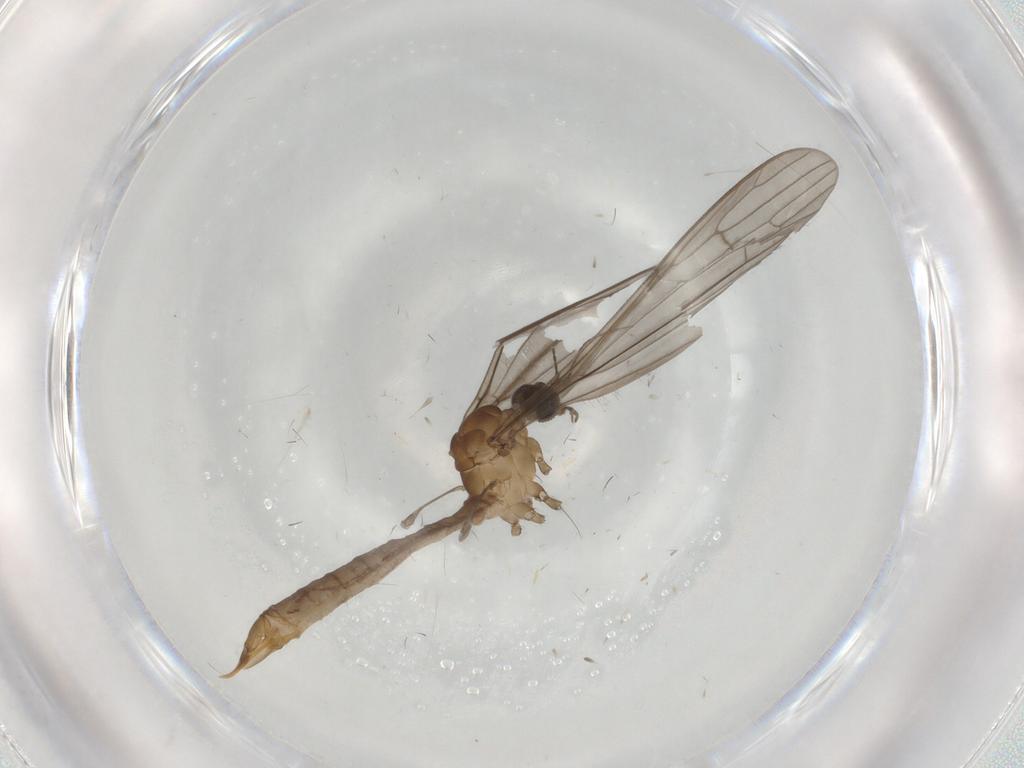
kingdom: Animalia
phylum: Arthropoda
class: Insecta
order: Diptera
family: Limoniidae
